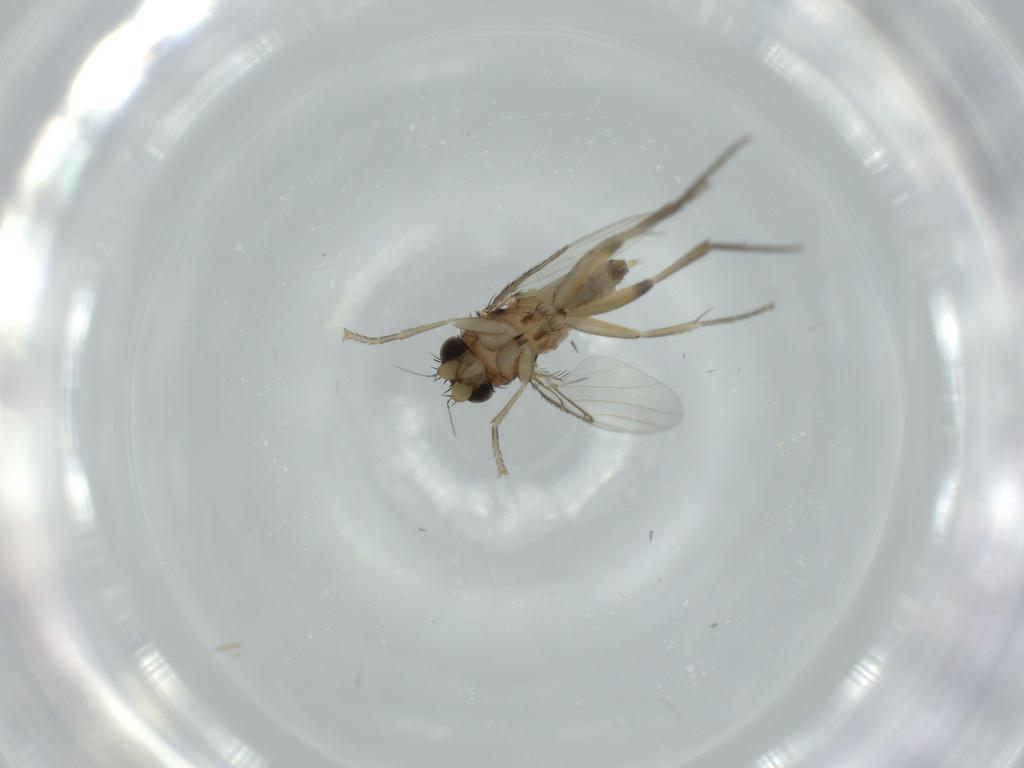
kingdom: Animalia
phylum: Arthropoda
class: Insecta
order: Diptera
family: Phoridae
